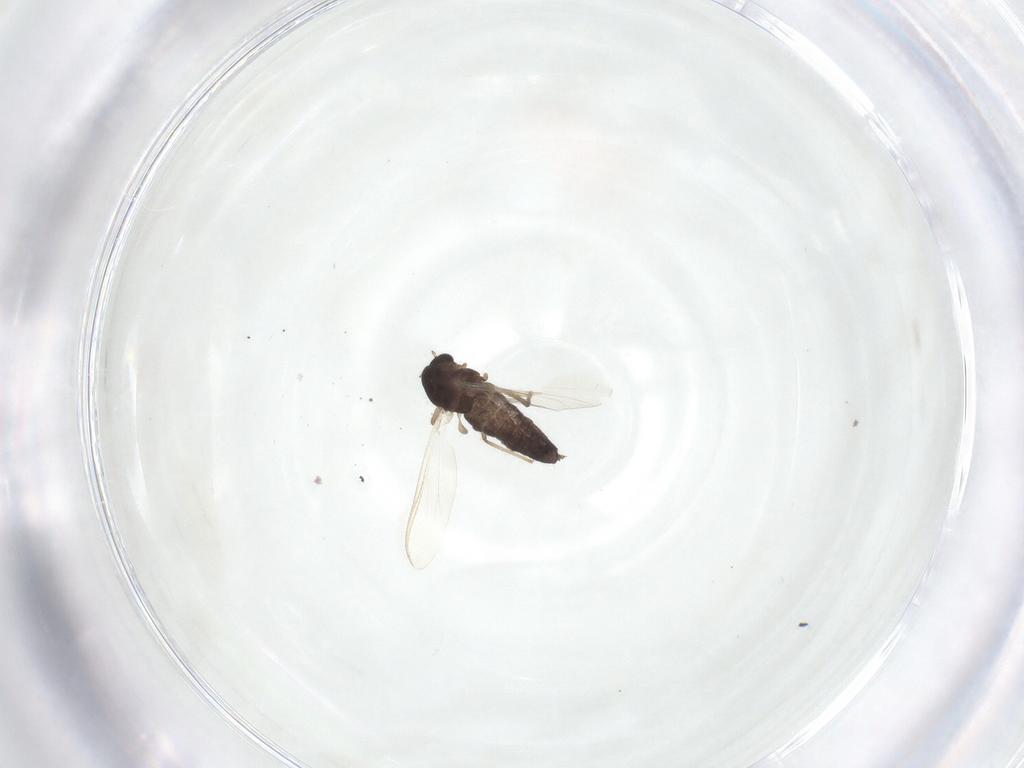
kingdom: Animalia
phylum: Arthropoda
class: Insecta
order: Diptera
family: Chironomidae
